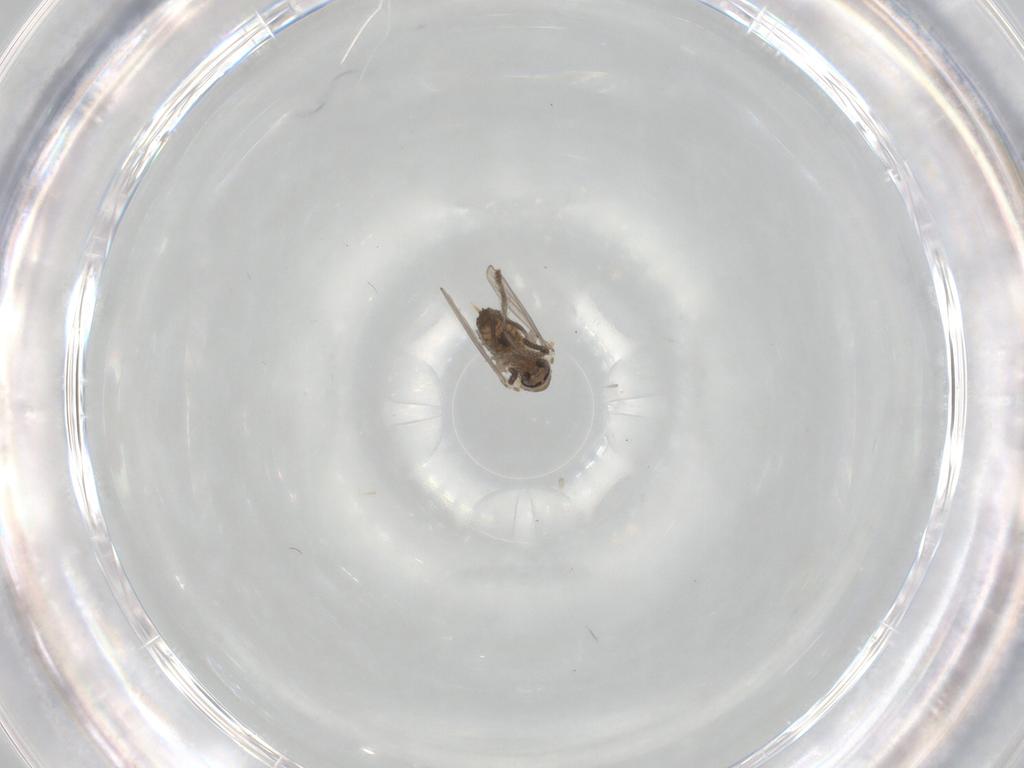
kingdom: Animalia
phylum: Arthropoda
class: Insecta
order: Diptera
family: Psychodidae
